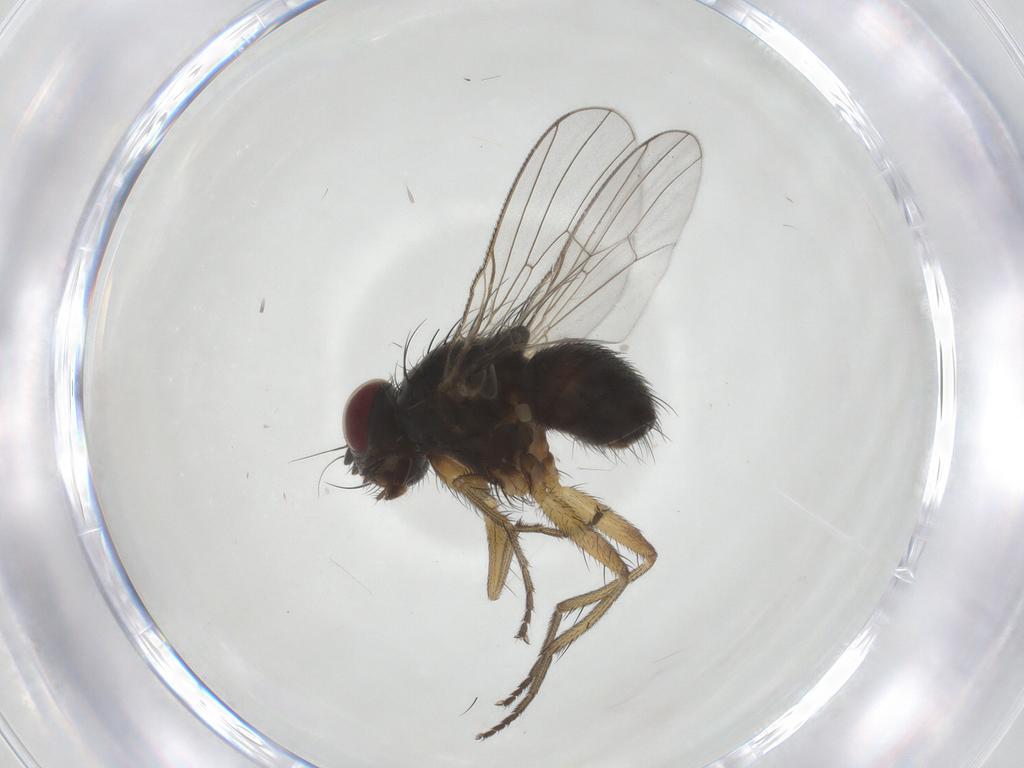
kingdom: Animalia
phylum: Arthropoda
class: Insecta
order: Diptera
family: Muscidae
